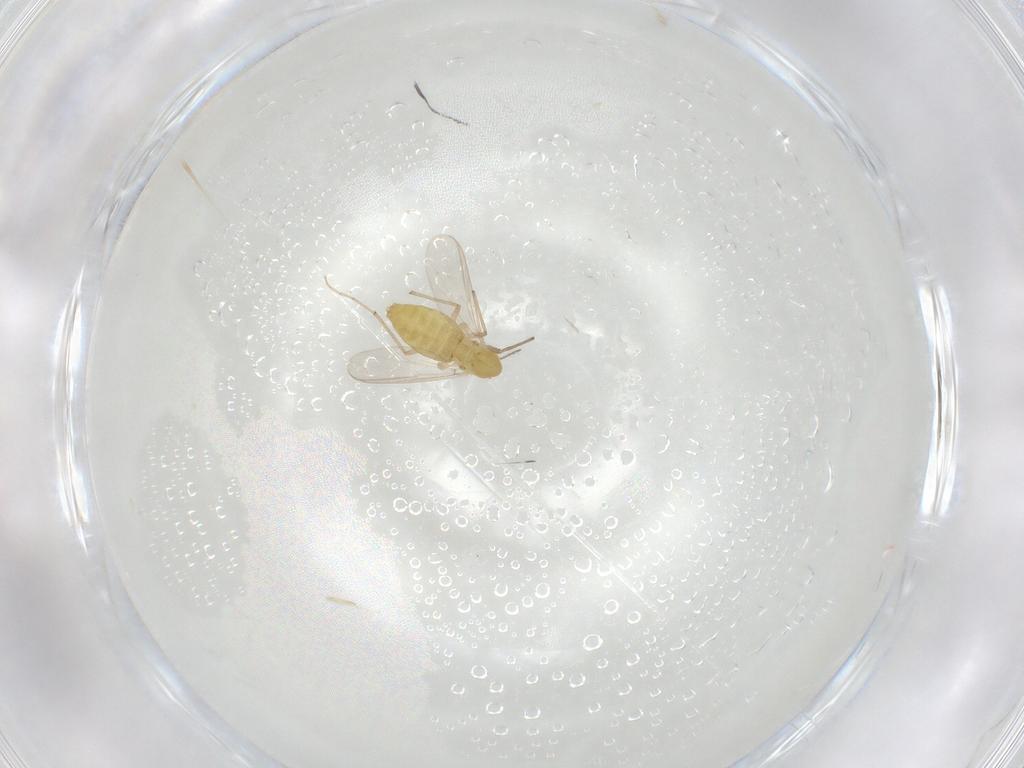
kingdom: Animalia
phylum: Arthropoda
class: Insecta
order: Diptera
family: Chironomidae
